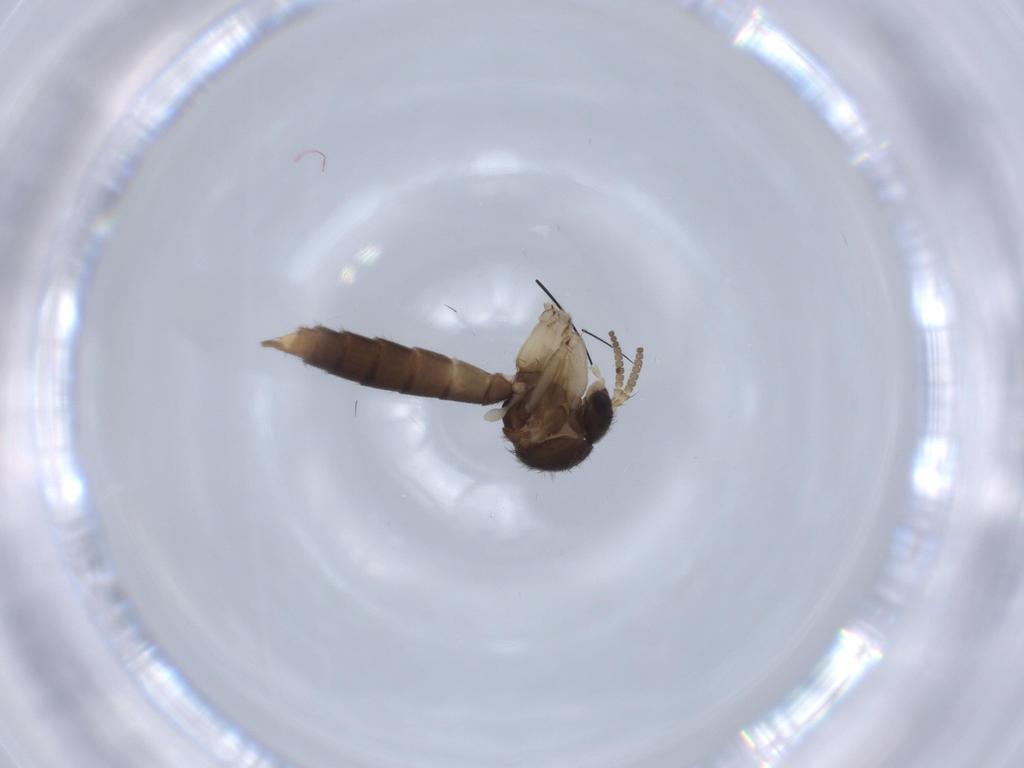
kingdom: Animalia
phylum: Arthropoda
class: Insecta
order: Diptera
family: Mycetophilidae
